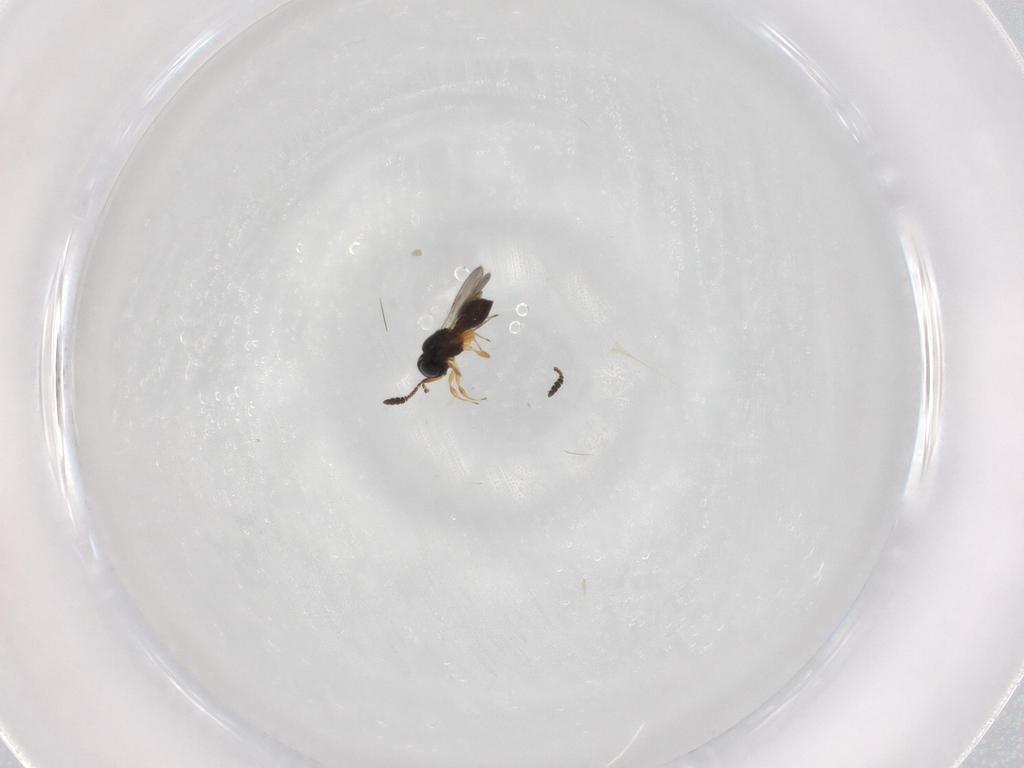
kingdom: Animalia
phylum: Arthropoda
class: Insecta
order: Hymenoptera
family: Scelionidae
